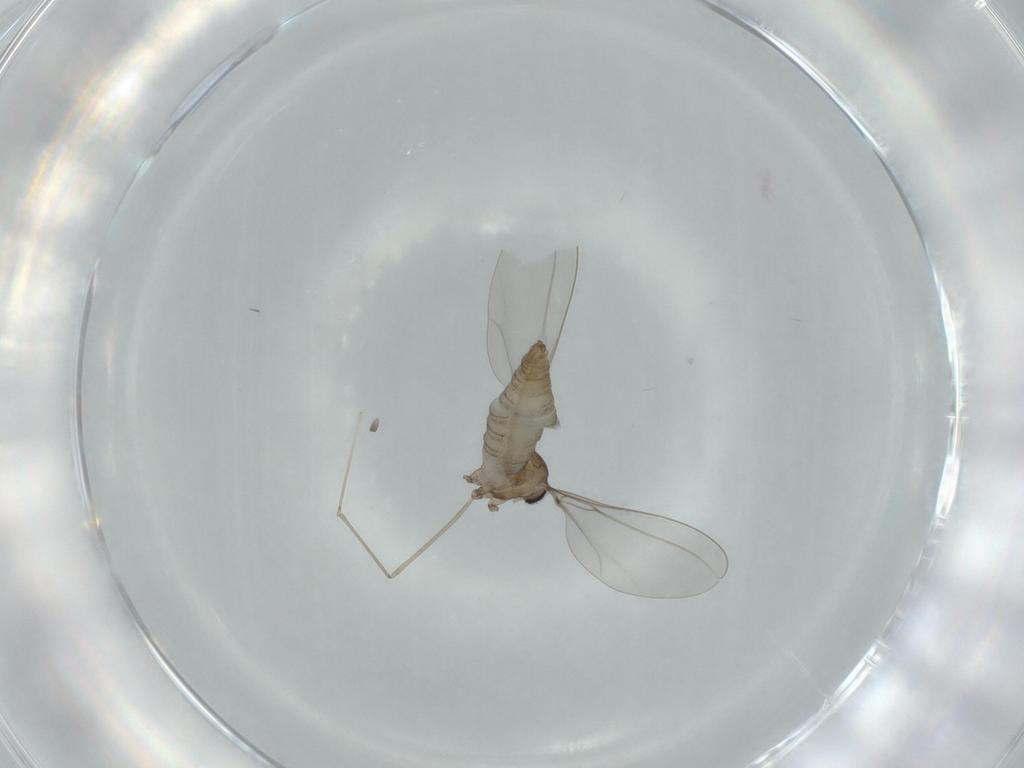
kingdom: Animalia
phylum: Arthropoda
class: Insecta
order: Diptera
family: Cecidomyiidae
